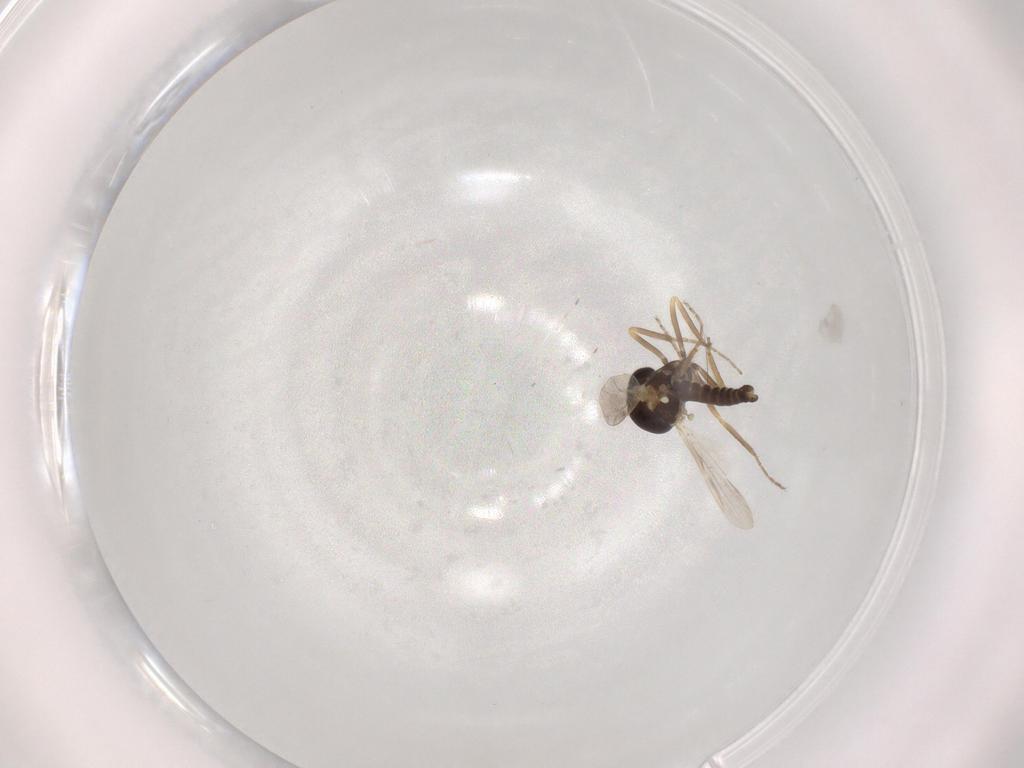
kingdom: Animalia
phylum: Arthropoda
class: Insecta
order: Diptera
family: Ceratopogonidae
